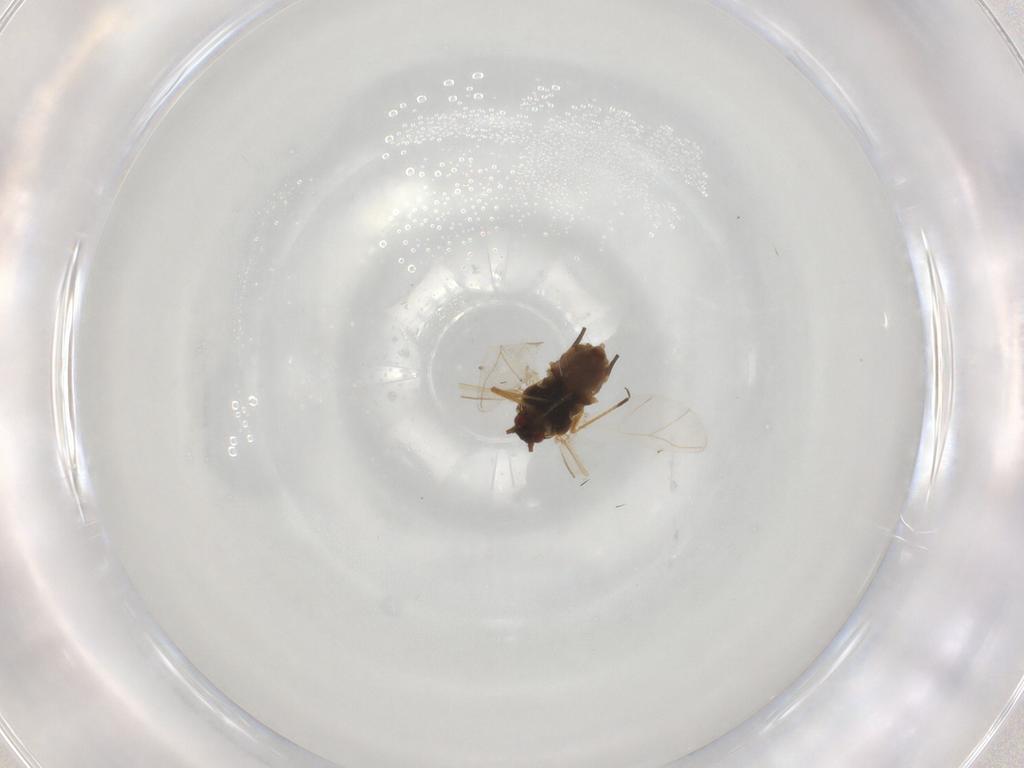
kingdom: Animalia
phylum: Arthropoda
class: Insecta
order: Hemiptera
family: Aphididae
